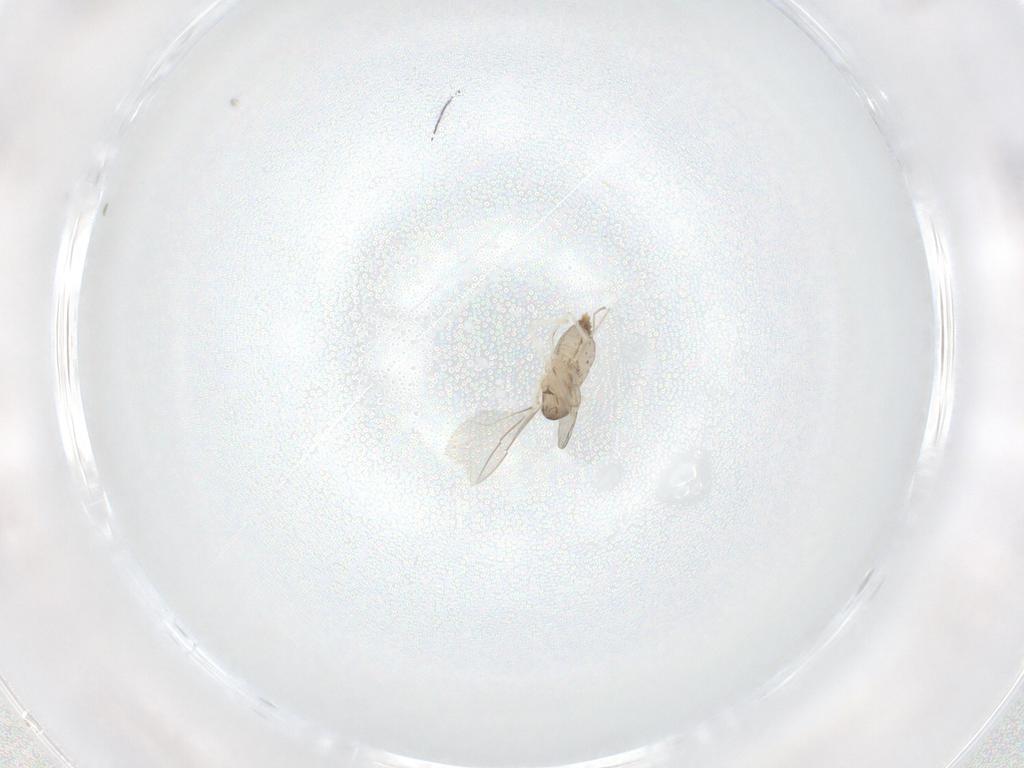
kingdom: Animalia
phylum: Arthropoda
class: Insecta
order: Diptera
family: Cecidomyiidae
